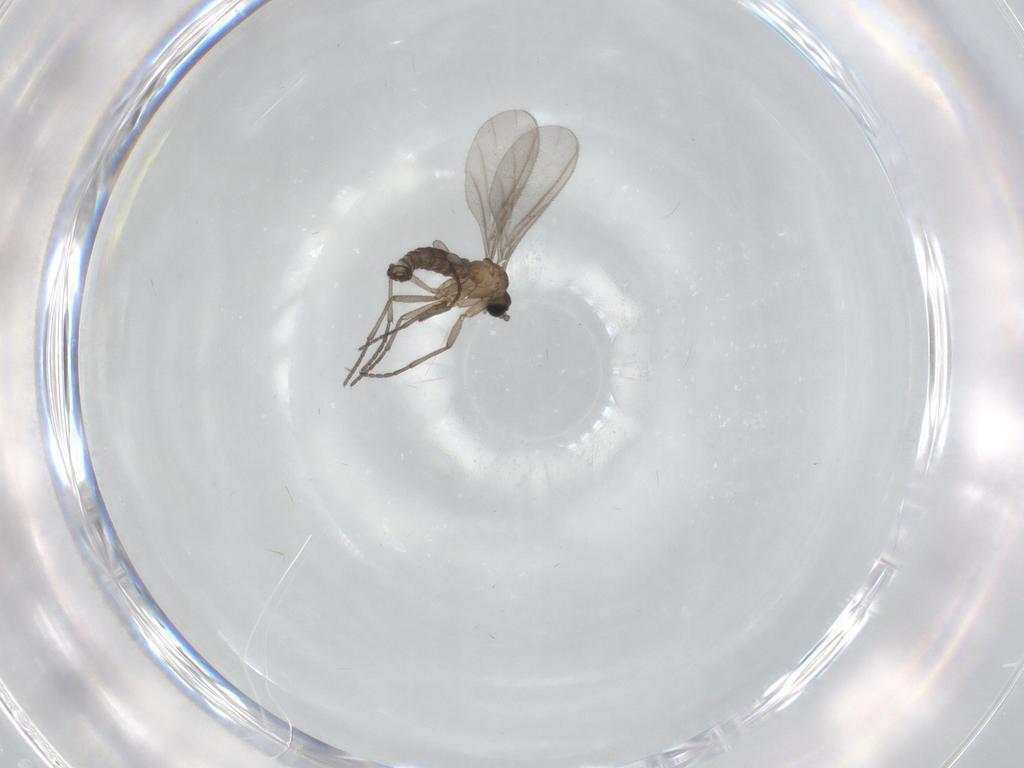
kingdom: Animalia
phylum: Arthropoda
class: Insecta
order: Diptera
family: Sciaridae
